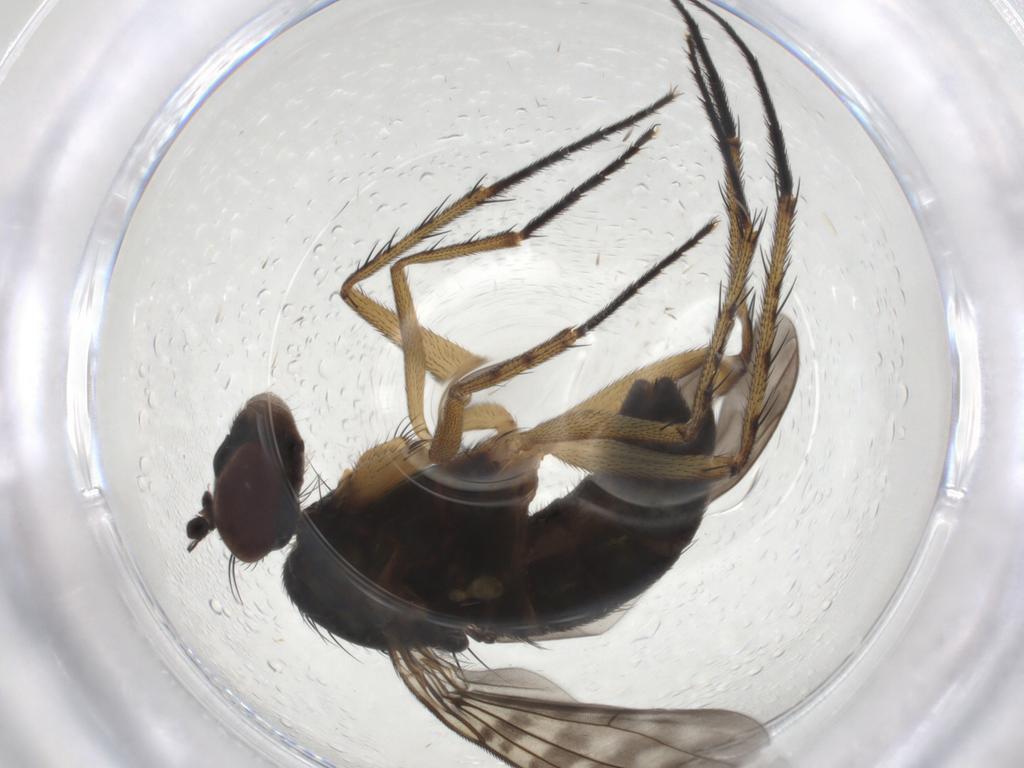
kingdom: Animalia
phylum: Arthropoda
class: Insecta
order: Diptera
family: Dolichopodidae
